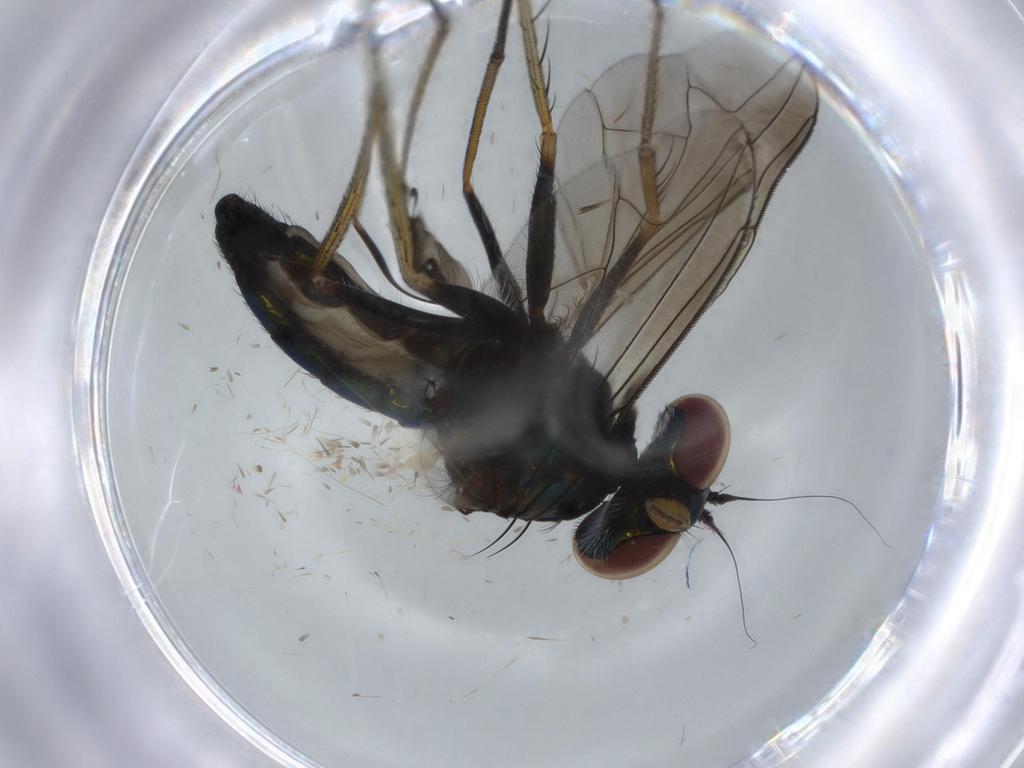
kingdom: Animalia
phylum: Arthropoda
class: Insecta
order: Diptera
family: Dolichopodidae
